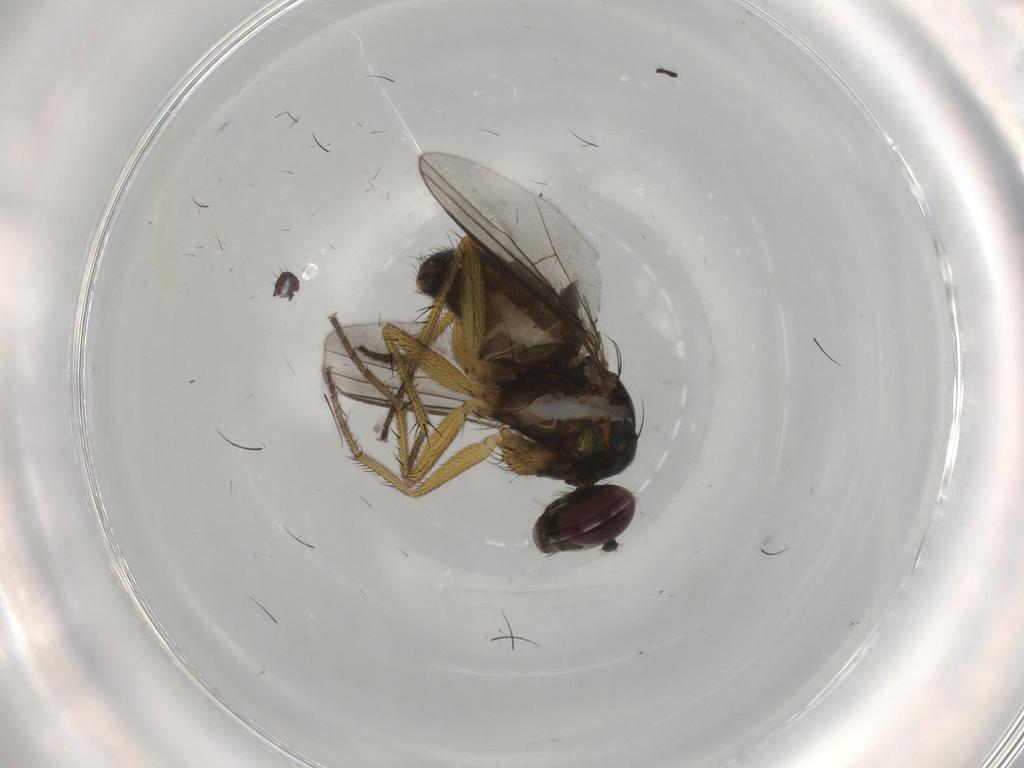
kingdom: Animalia
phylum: Arthropoda
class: Insecta
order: Diptera
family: Dolichopodidae
